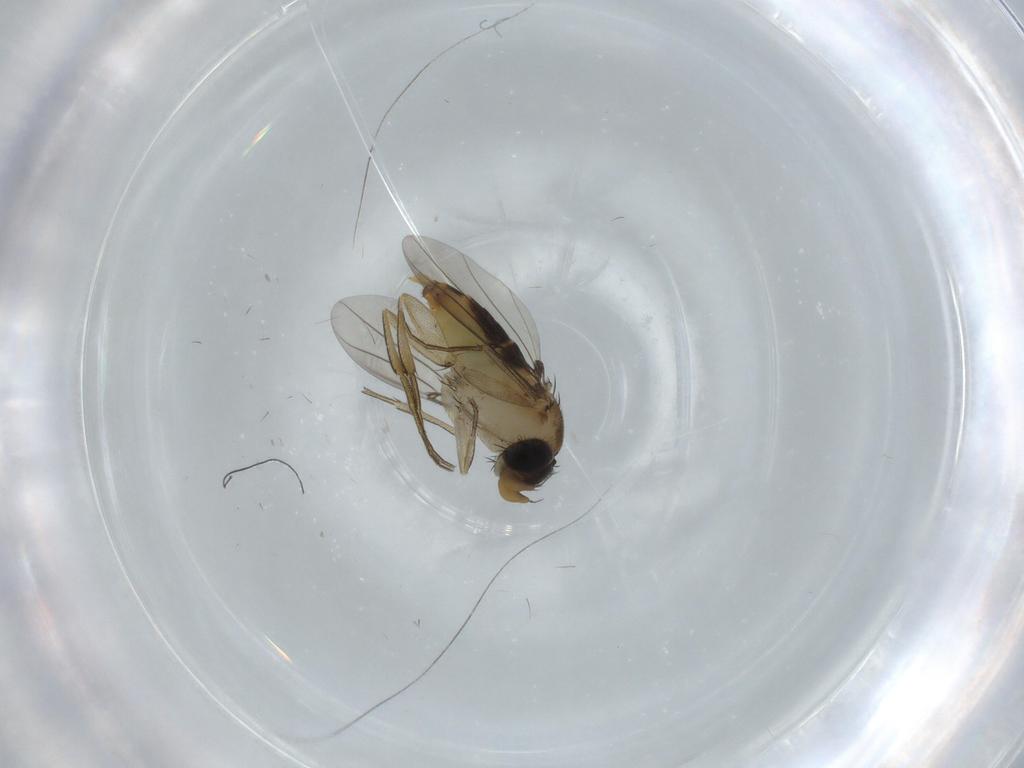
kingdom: Animalia
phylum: Arthropoda
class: Insecta
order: Diptera
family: Phoridae
